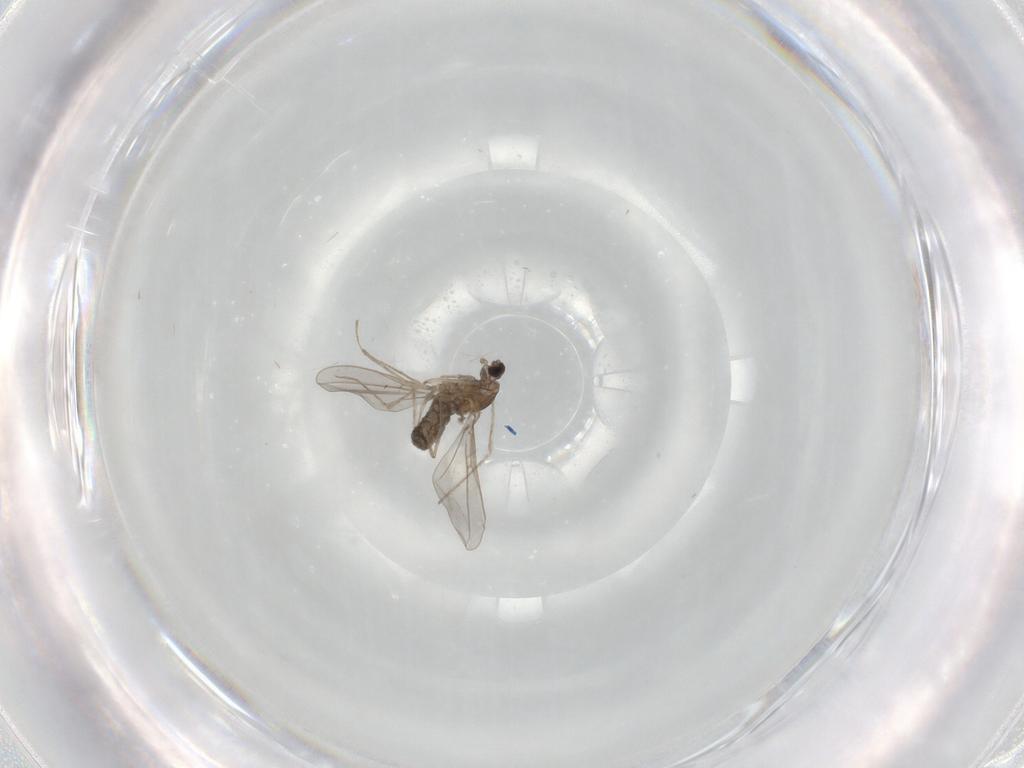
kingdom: Animalia
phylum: Arthropoda
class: Insecta
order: Diptera
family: Cecidomyiidae
